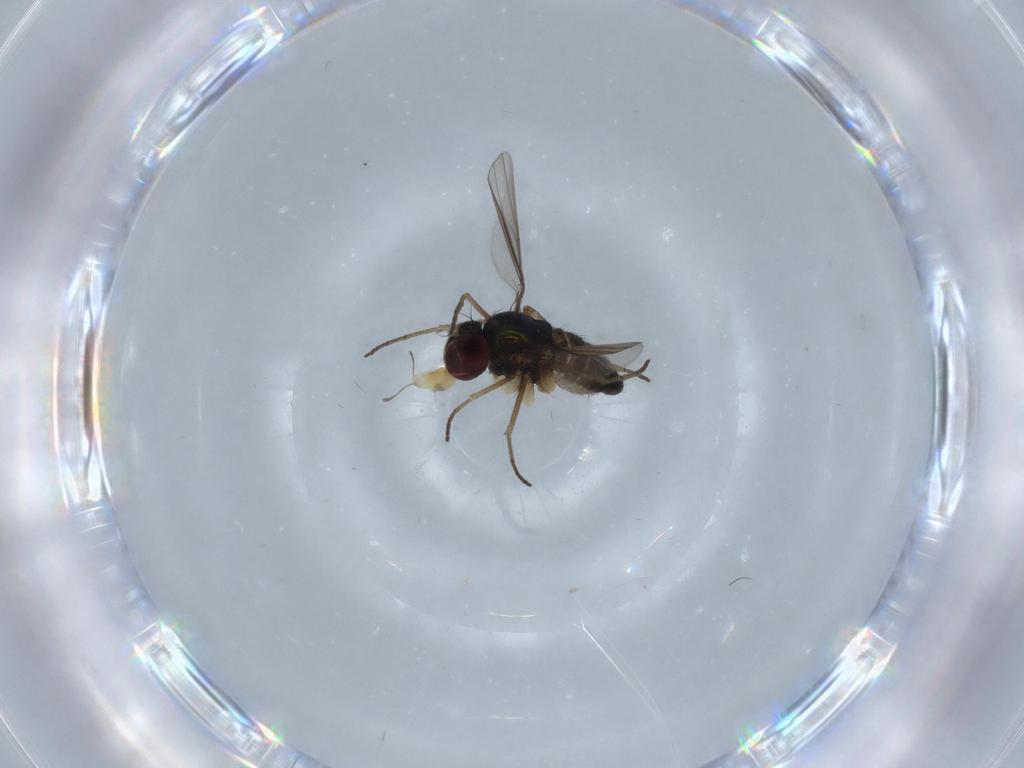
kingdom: Animalia
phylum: Arthropoda
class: Insecta
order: Diptera
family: Dolichopodidae
